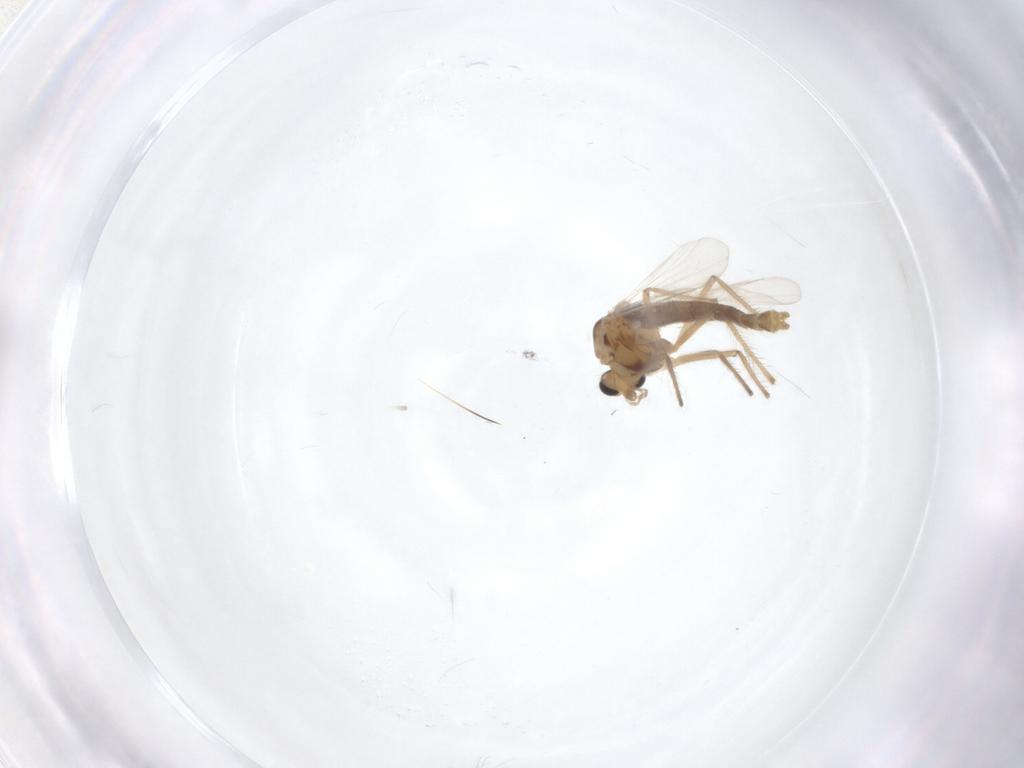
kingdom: Animalia
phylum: Arthropoda
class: Insecta
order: Diptera
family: Chironomidae
